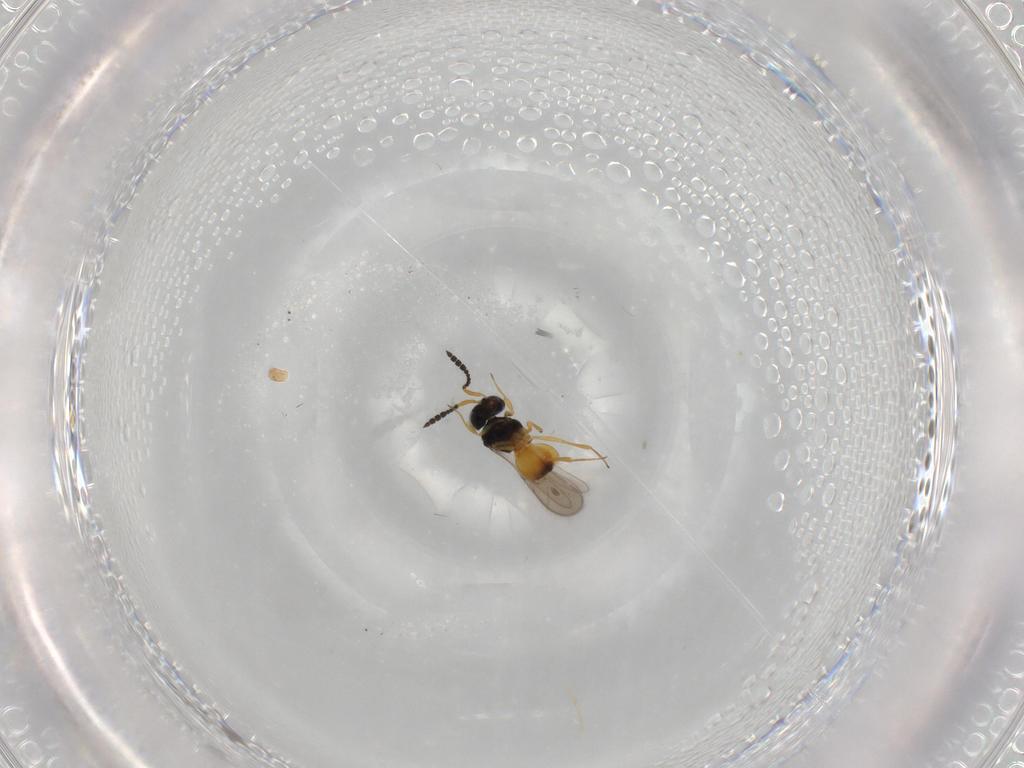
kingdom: Animalia
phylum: Arthropoda
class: Insecta
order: Hymenoptera
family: Scelionidae
